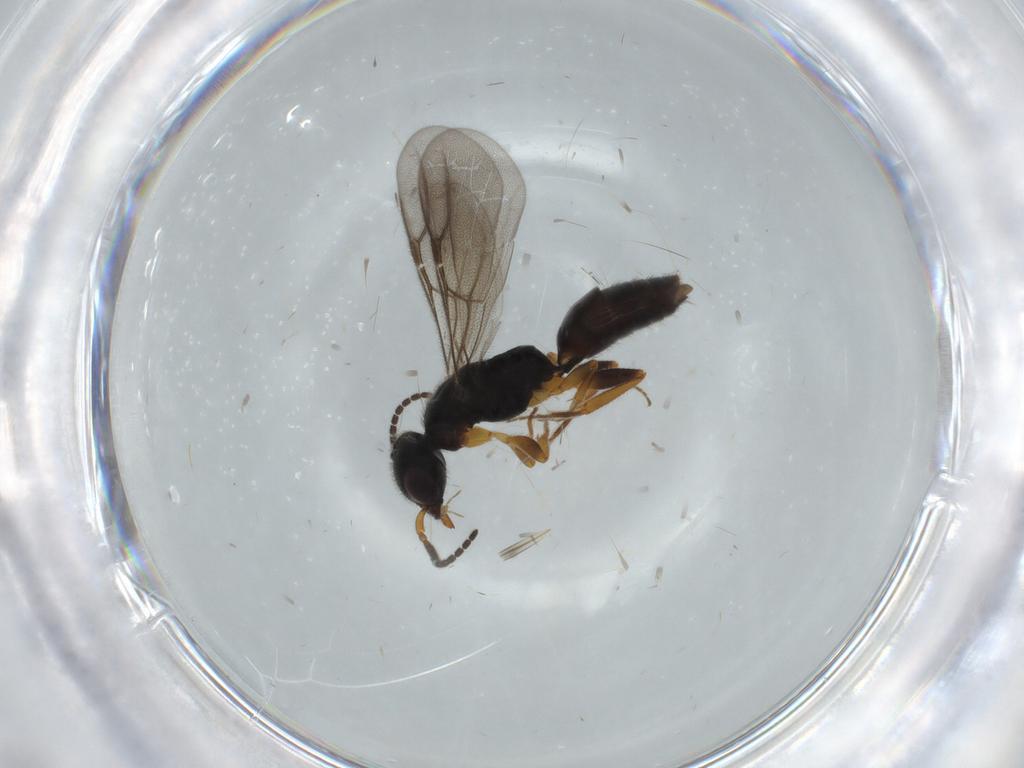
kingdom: Animalia
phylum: Arthropoda
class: Insecta
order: Hymenoptera
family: Bethylidae
